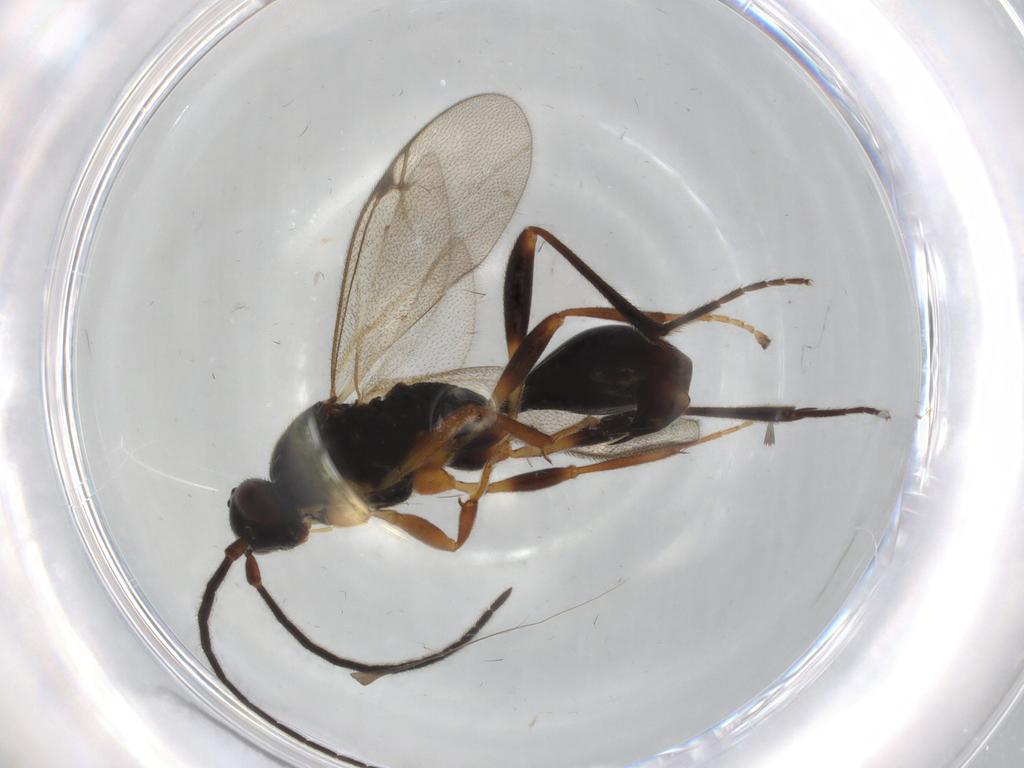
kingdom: Animalia
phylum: Arthropoda
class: Insecta
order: Hymenoptera
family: Proctotrupidae
